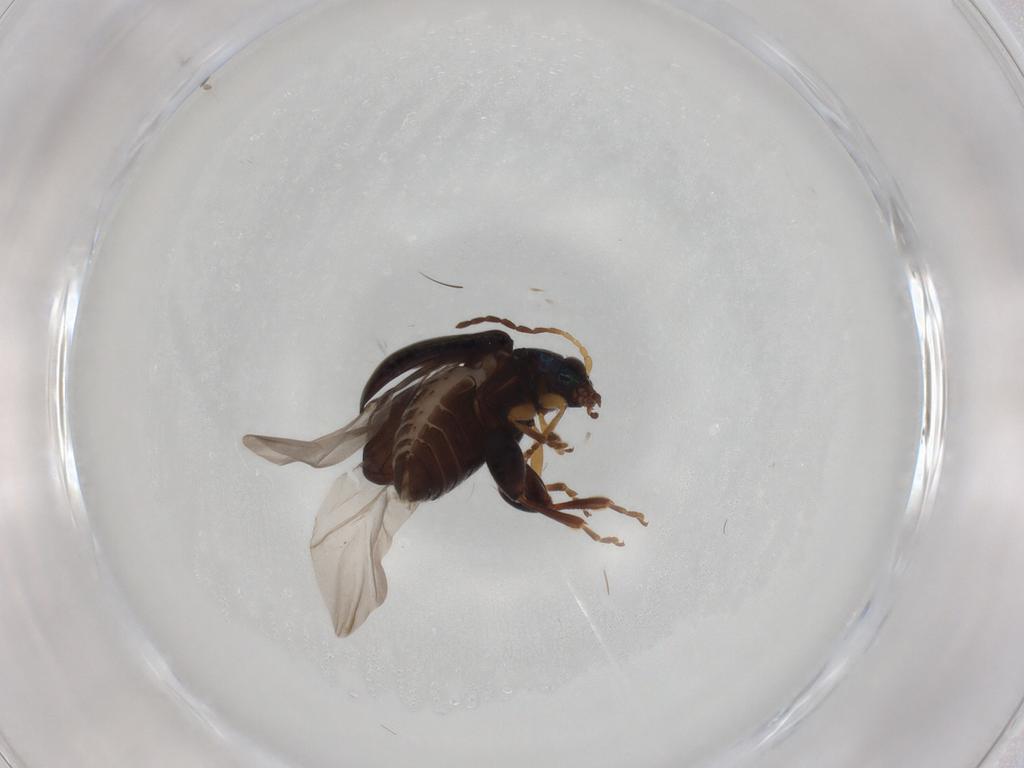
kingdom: Animalia
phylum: Arthropoda
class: Insecta
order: Coleoptera
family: Chrysomelidae
